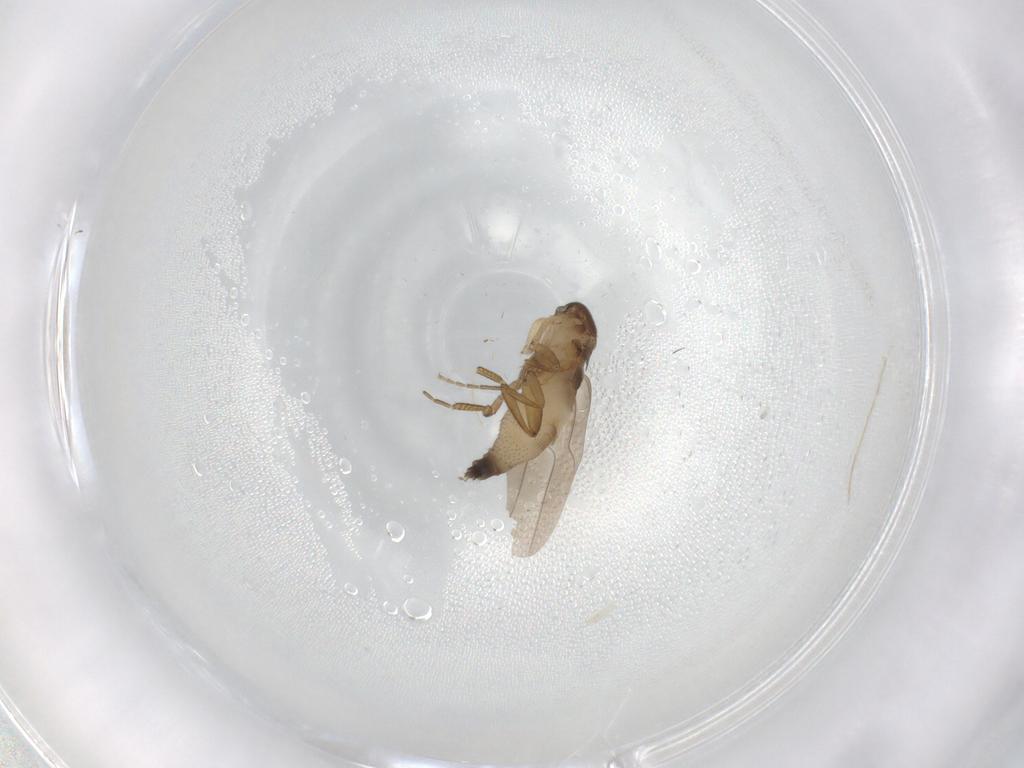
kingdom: Animalia
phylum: Arthropoda
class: Insecta
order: Diptera
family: Phoridae
